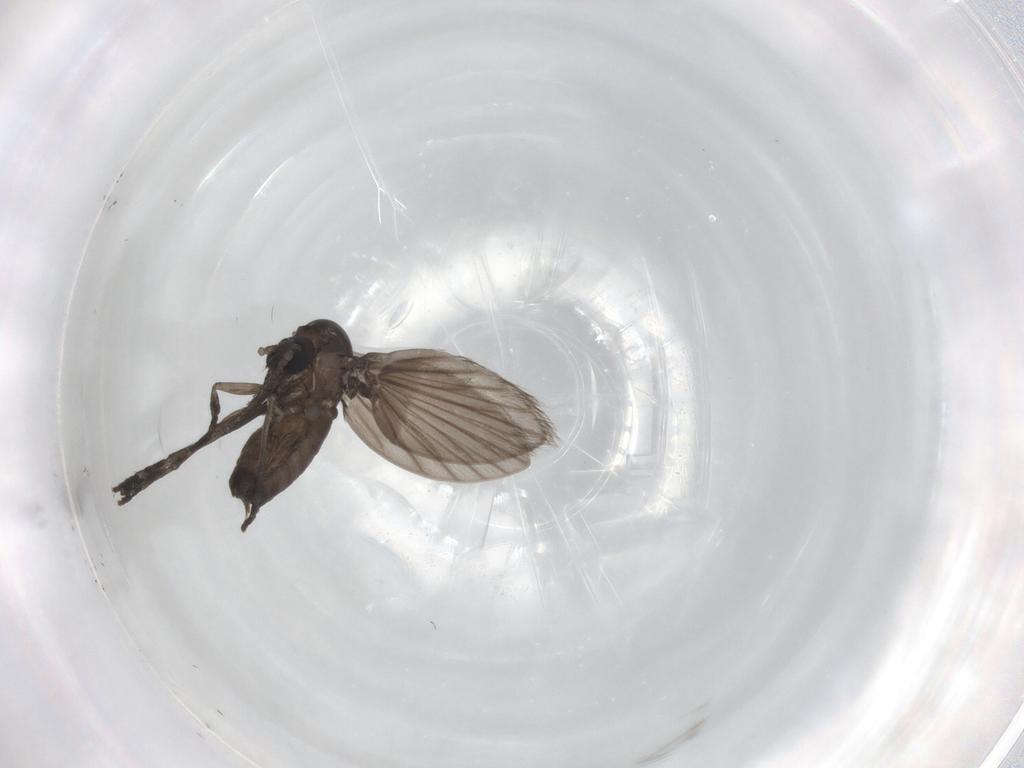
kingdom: Animalia
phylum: Arthropoda
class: Insecta
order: Diptera
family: Psychodidae
